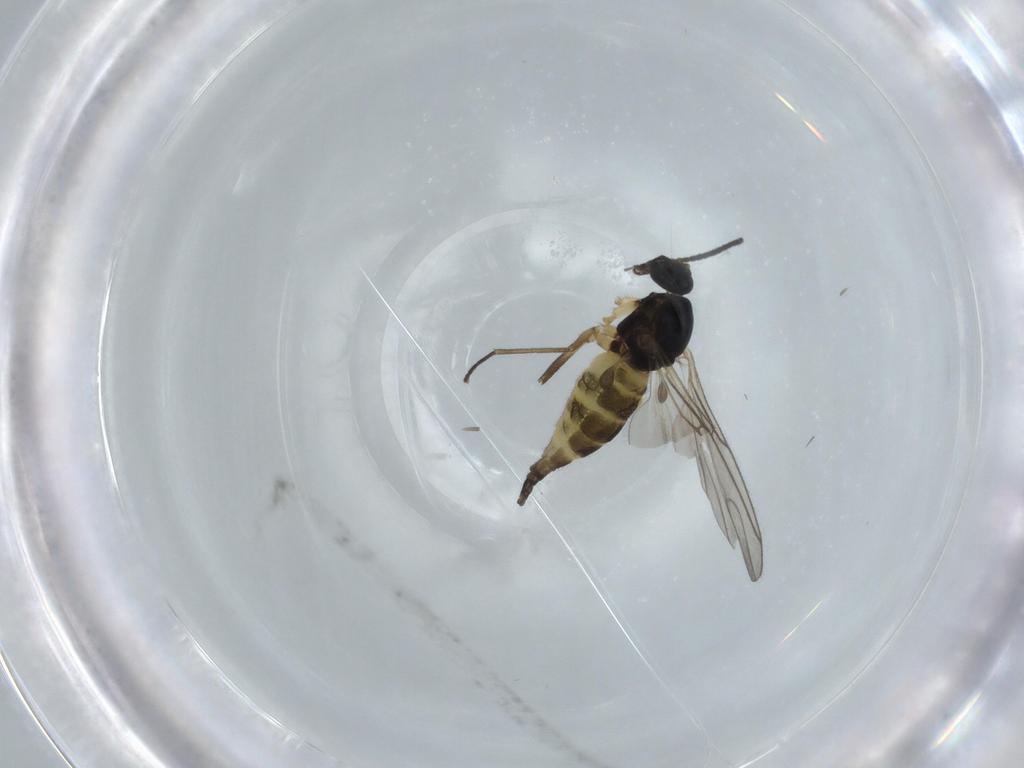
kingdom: Animalia
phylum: Arthropoda
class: Insecta
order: Diptera
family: Sciaridae
